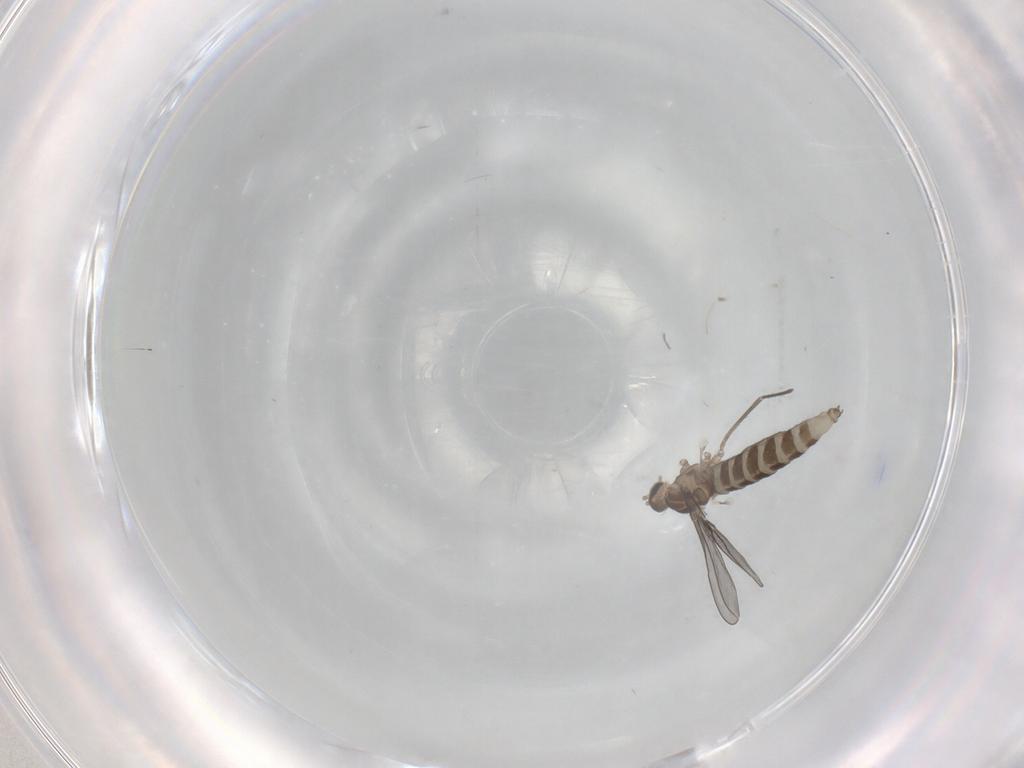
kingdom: Animalia
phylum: Arthropoda
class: Insecta
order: Diptera
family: Cecidomyiidae
